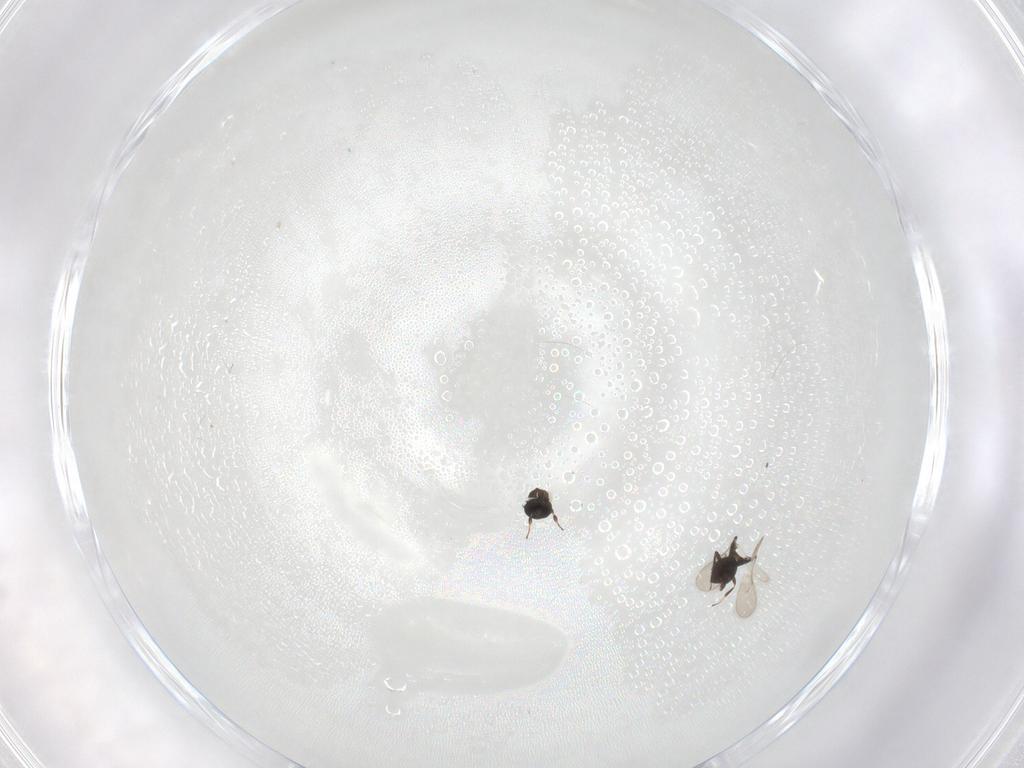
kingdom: Animalia
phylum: Arthropoda
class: Insecta
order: Hymenoptera
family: Scelionidae
